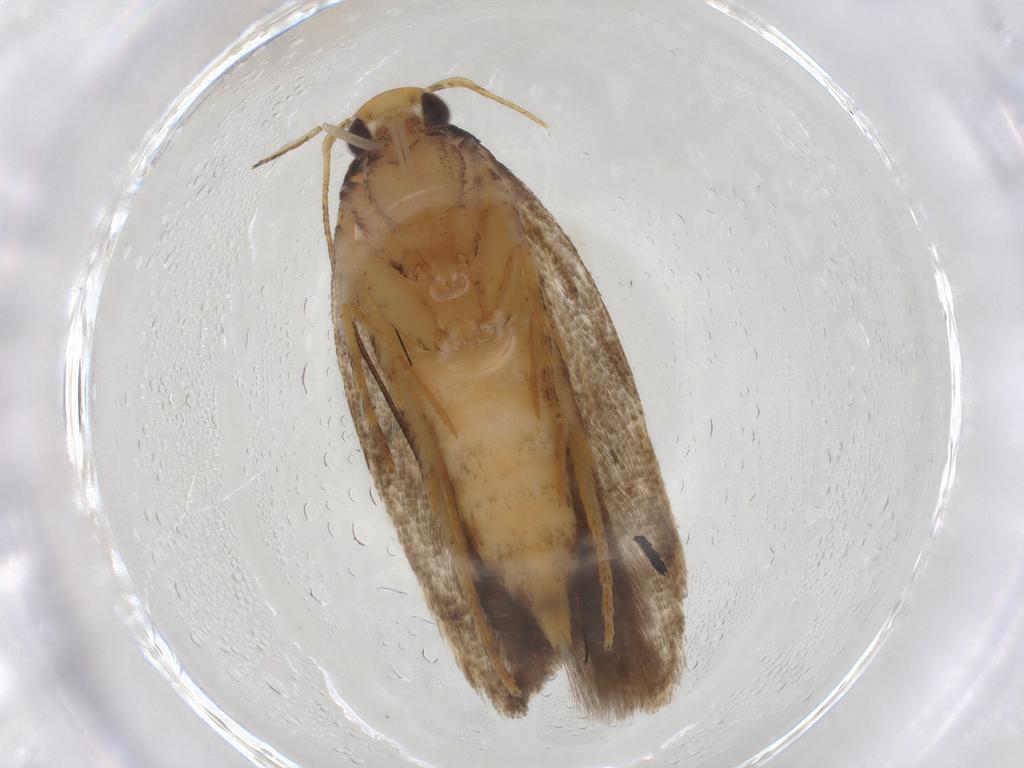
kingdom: Animalia
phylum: Arthropoda
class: Insecta
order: Lepidoptera
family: Gelechiidae
